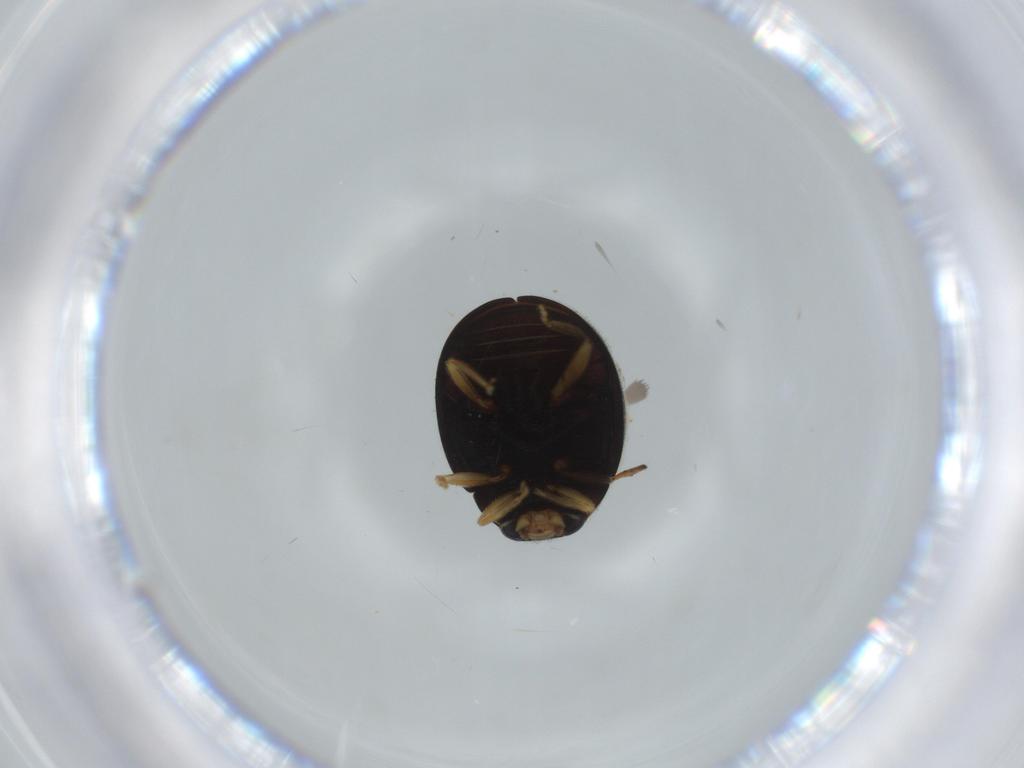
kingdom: Animalia
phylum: Arthropoda
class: Insecta
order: Coleoptera
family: Coccinellidae
